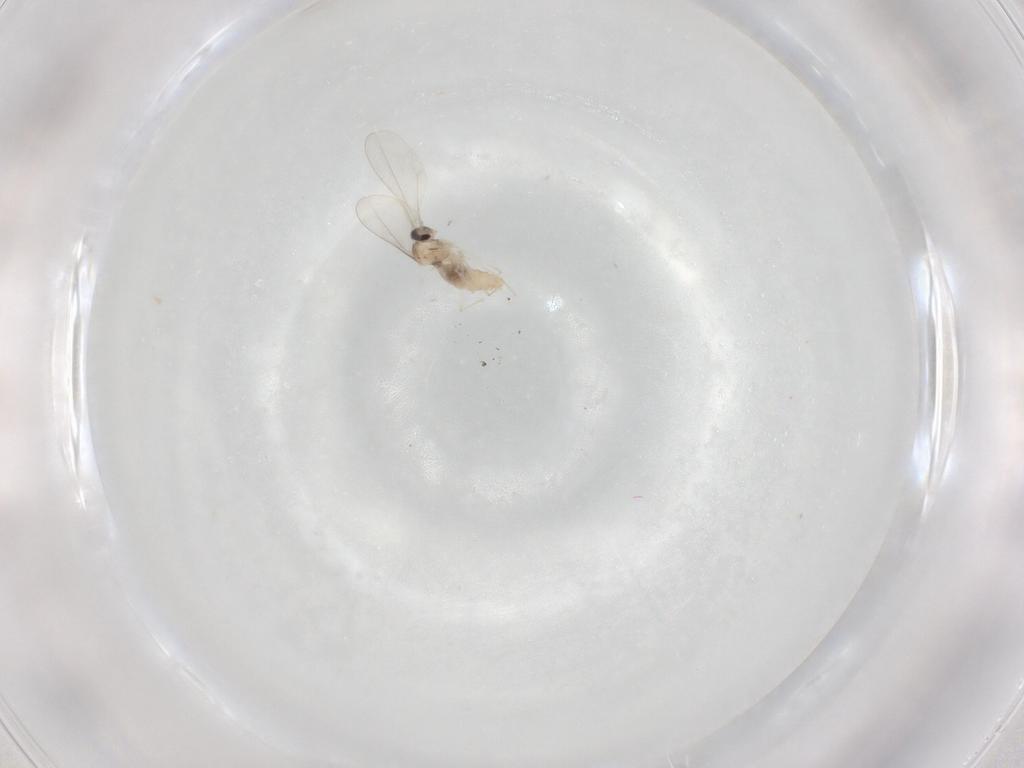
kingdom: Animalia
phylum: Arthropoda
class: Insecta
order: Diptera
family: Cecidomyiidae
